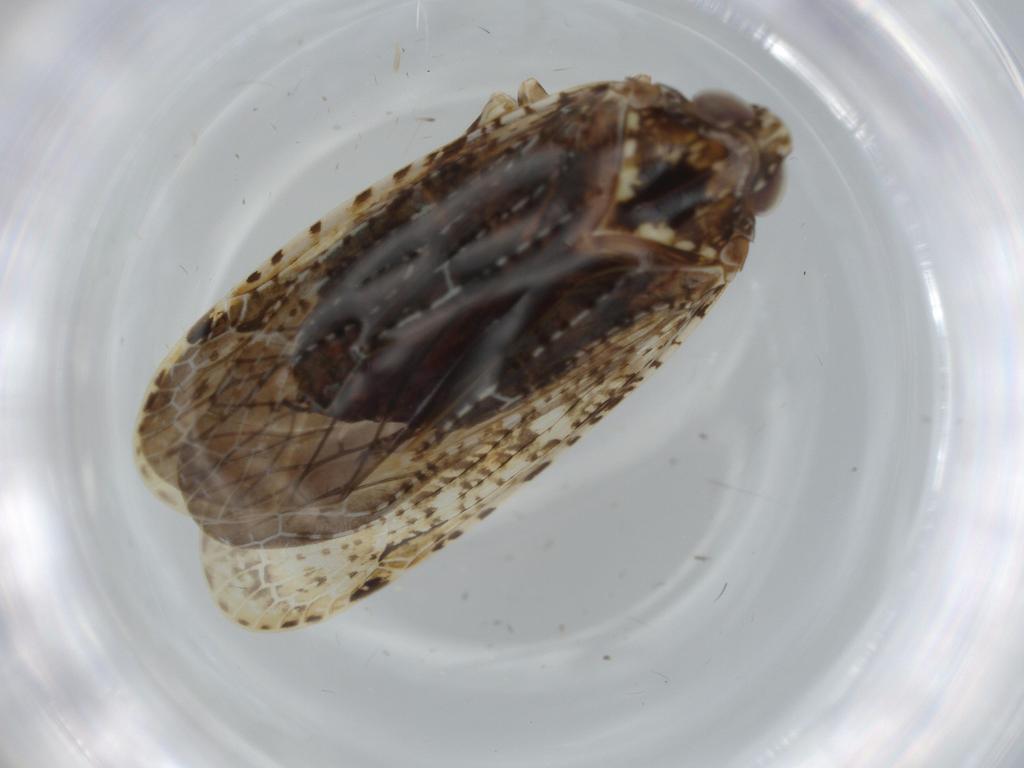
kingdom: Animalia
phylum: Arthropoda
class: Insecta
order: Hemiptera
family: Achilidae
